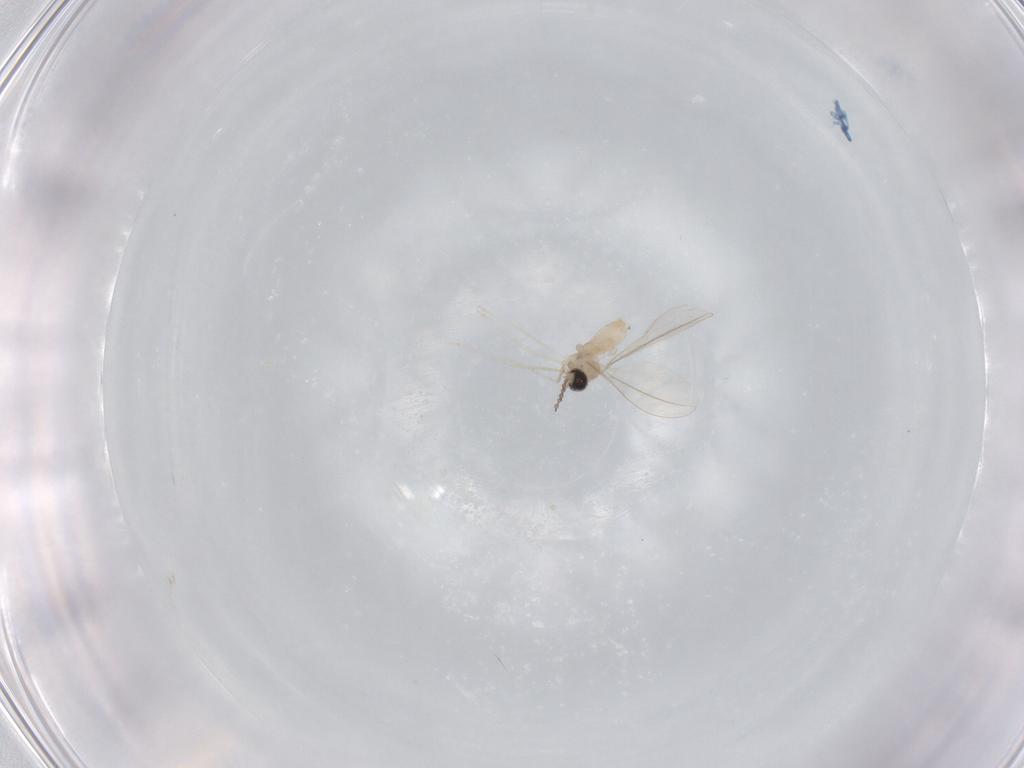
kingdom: Animalia
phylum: Arthropoda
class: Insecta
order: Diptera
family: Cecidomyiidae
